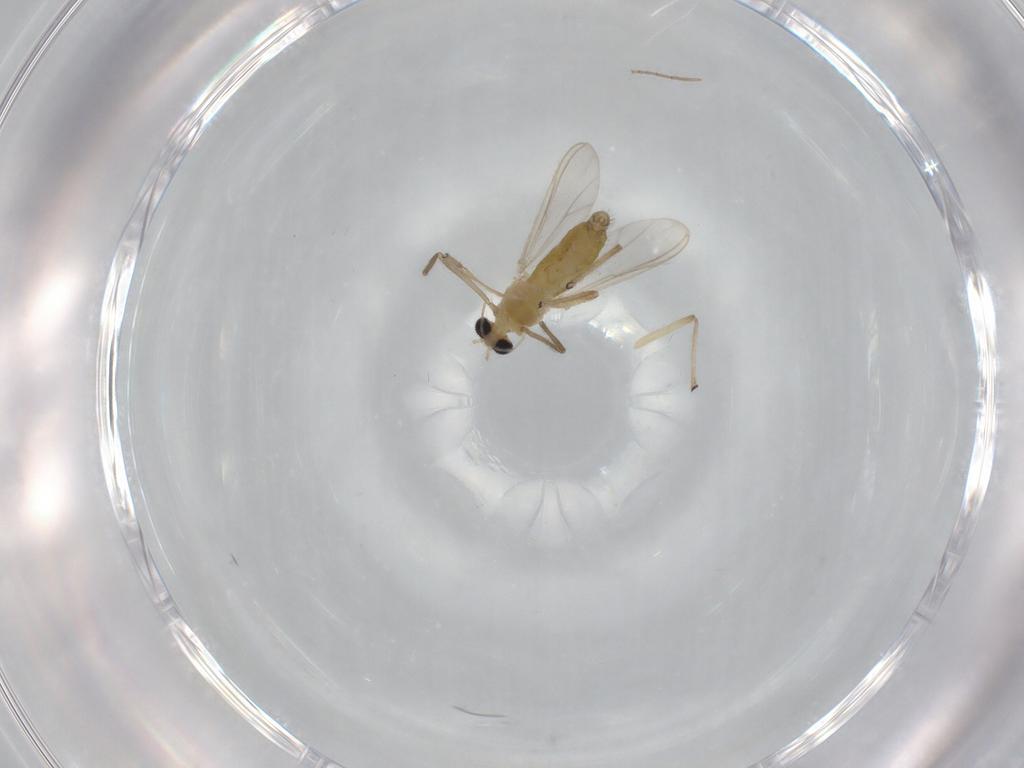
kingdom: Animalia
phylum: Arthropoda
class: Insecta
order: Diptera
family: Chironomidae
